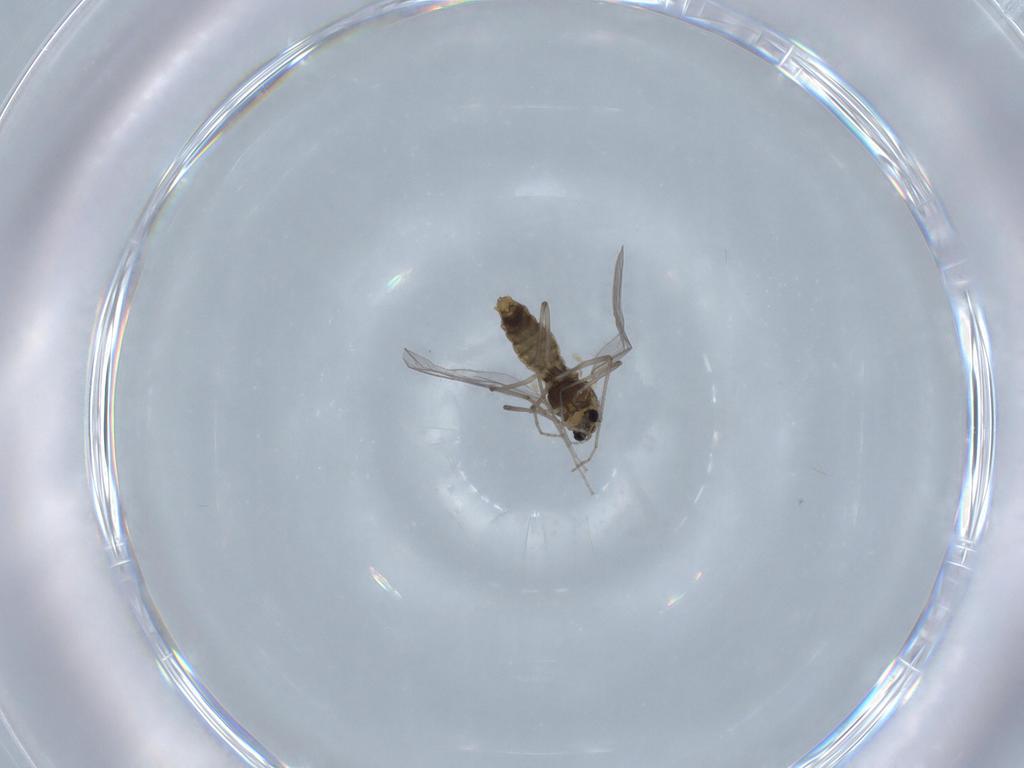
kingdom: Animalia
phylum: Arthropoda
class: Insecta
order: Diptera
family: Chironomidae
